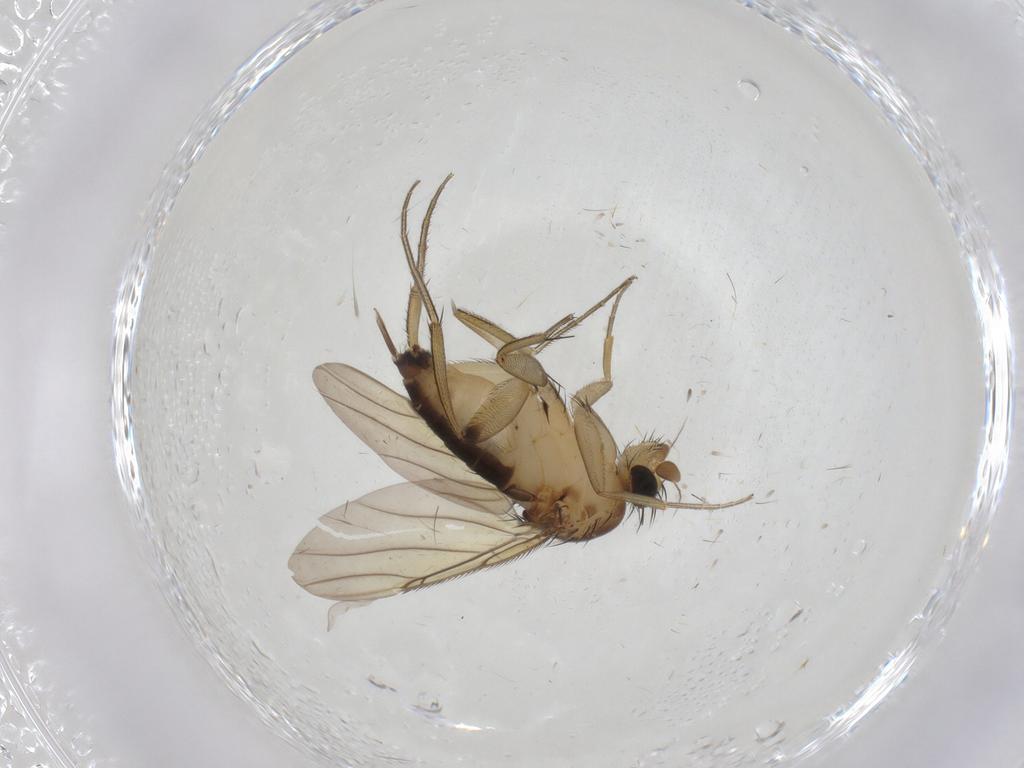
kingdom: Animalia
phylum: Arthropoda
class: Insecta
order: Diptera
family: Phoridae
